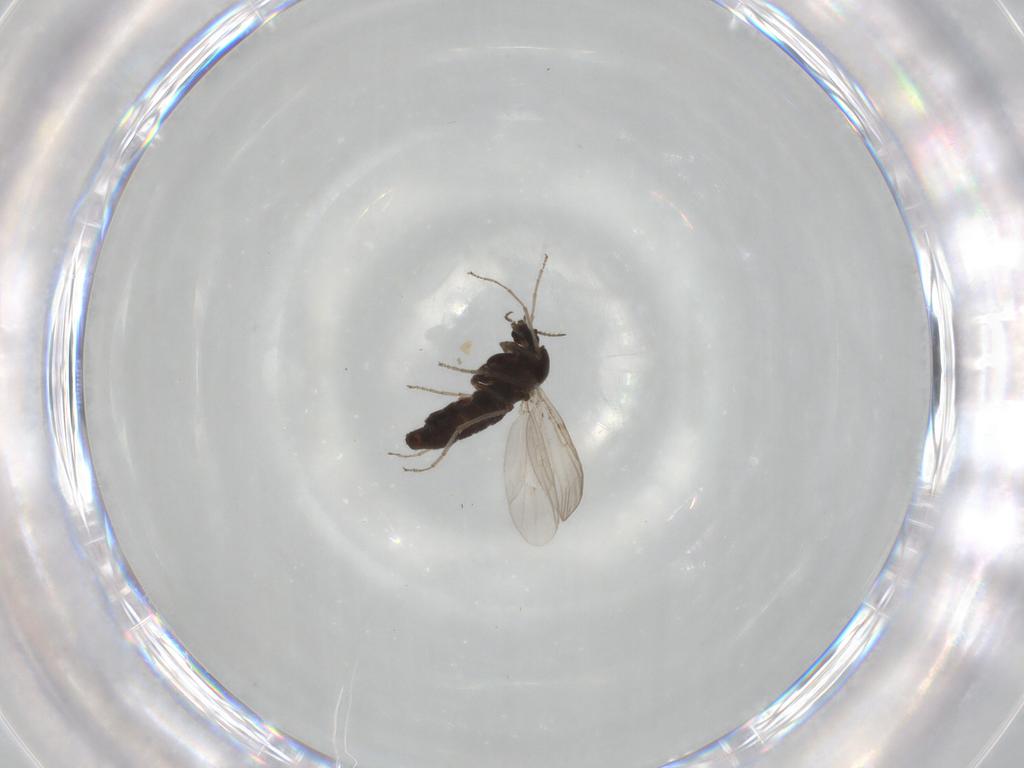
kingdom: Animalia
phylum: Arthropoda
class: Insecta
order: Diptera
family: Chironomidae
